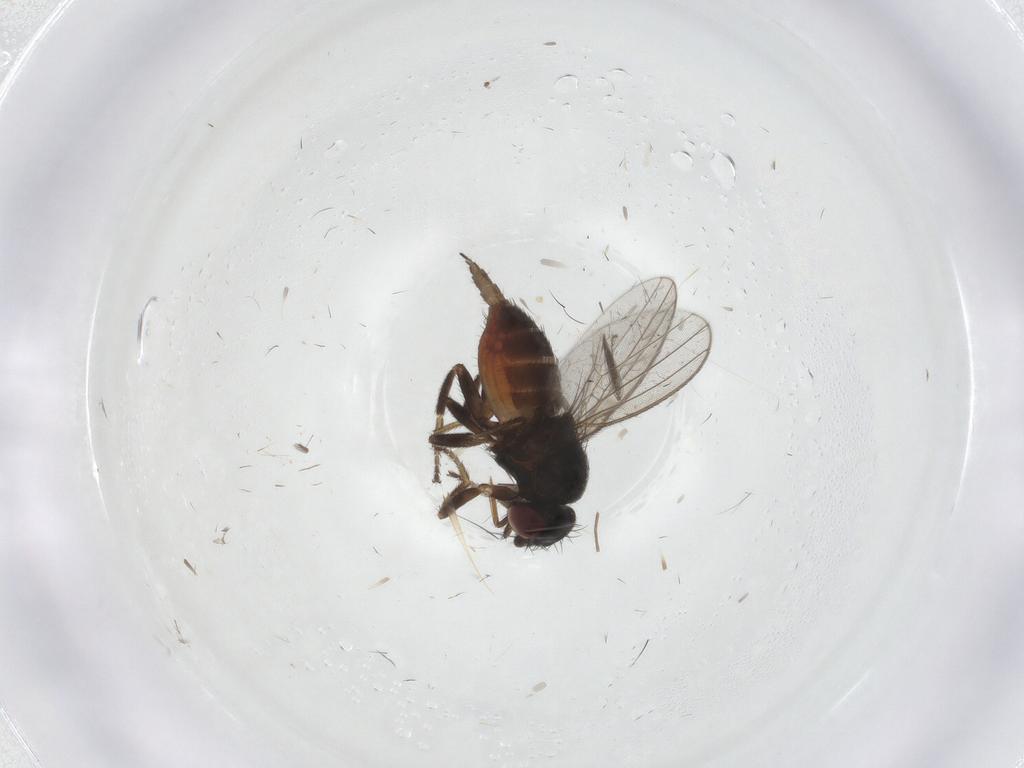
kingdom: Animalia
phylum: Arthropoda
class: Insecta
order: Diptera
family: Milichiidae
